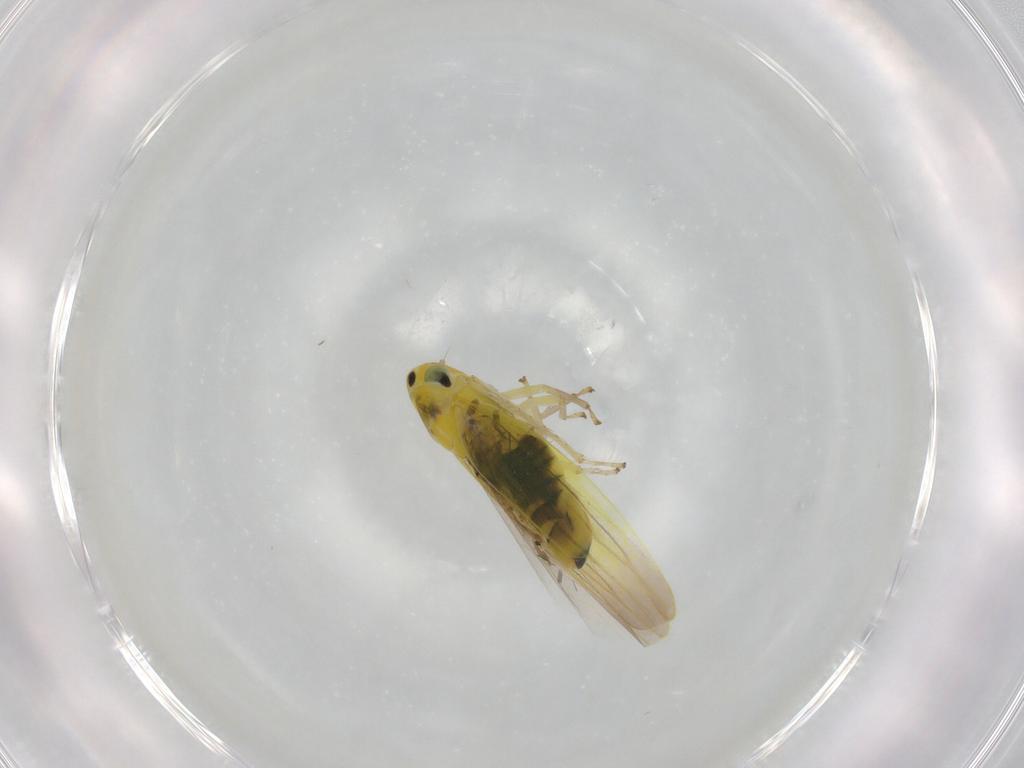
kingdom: Animalia
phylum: Arthropoda
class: Insecta
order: Hemiptera
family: Cicadellidae
